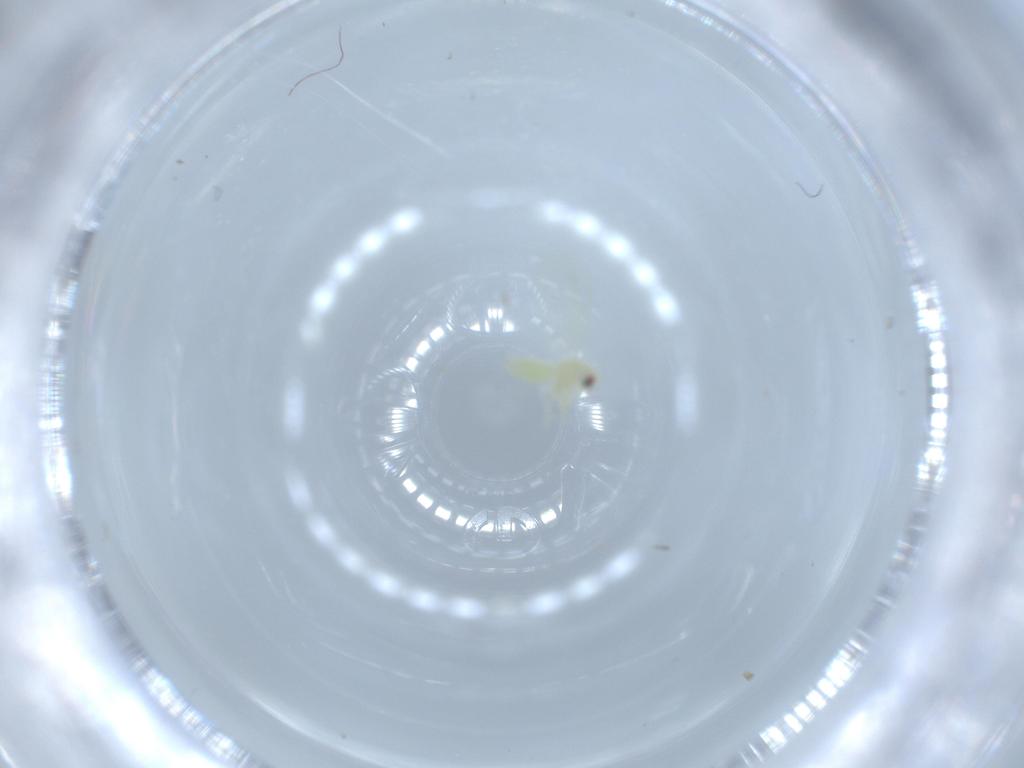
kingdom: Animalia
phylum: Arthropoda
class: Insecta
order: Hemiptera
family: Aleyrodidae
